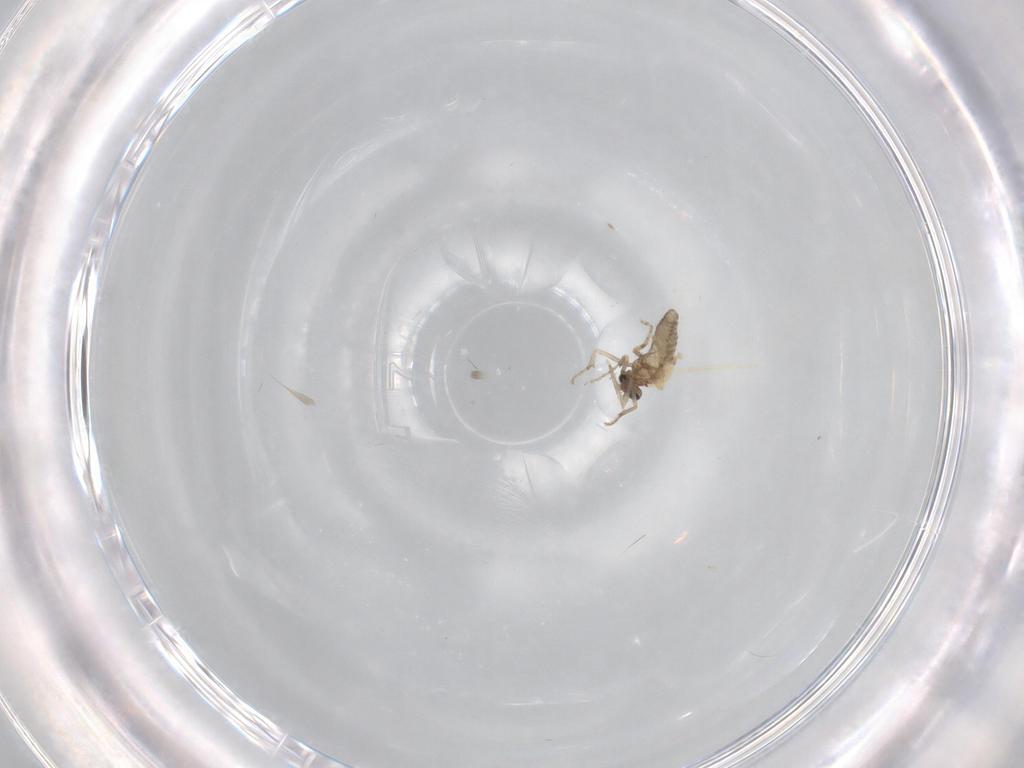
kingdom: Animalia
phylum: Arthropoda
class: Insecta
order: Diptera
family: Ceratopogonidae
